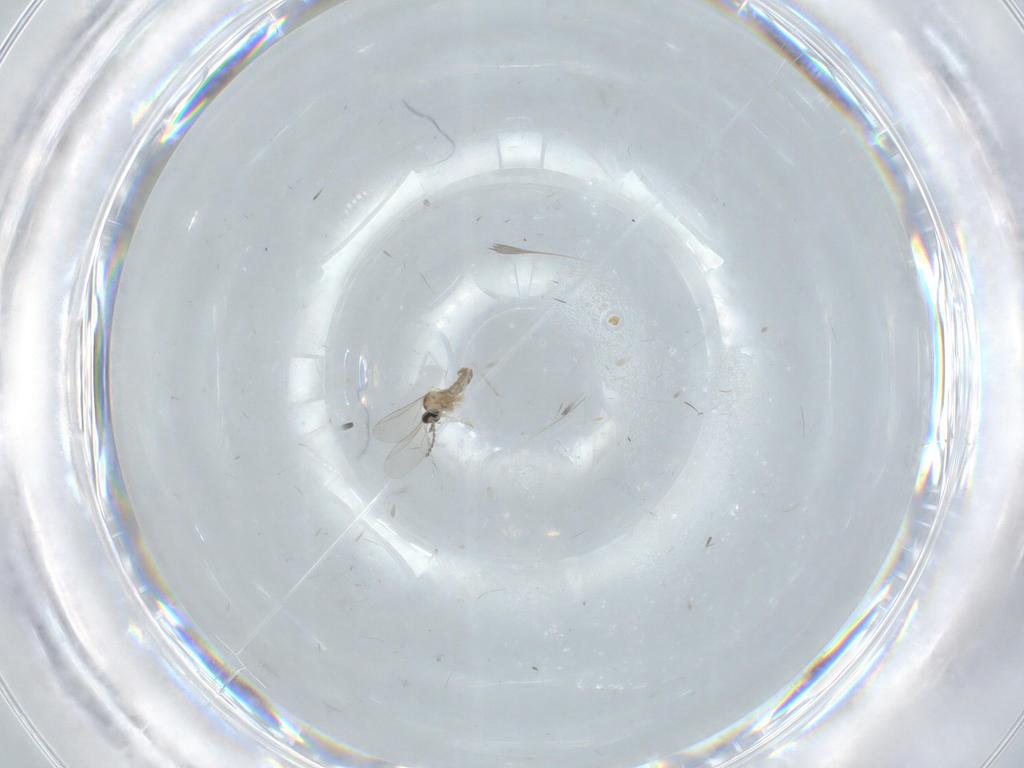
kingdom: Animalia
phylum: Arthropoda
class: Insecta
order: Diptera
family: Cecidomyiidae
